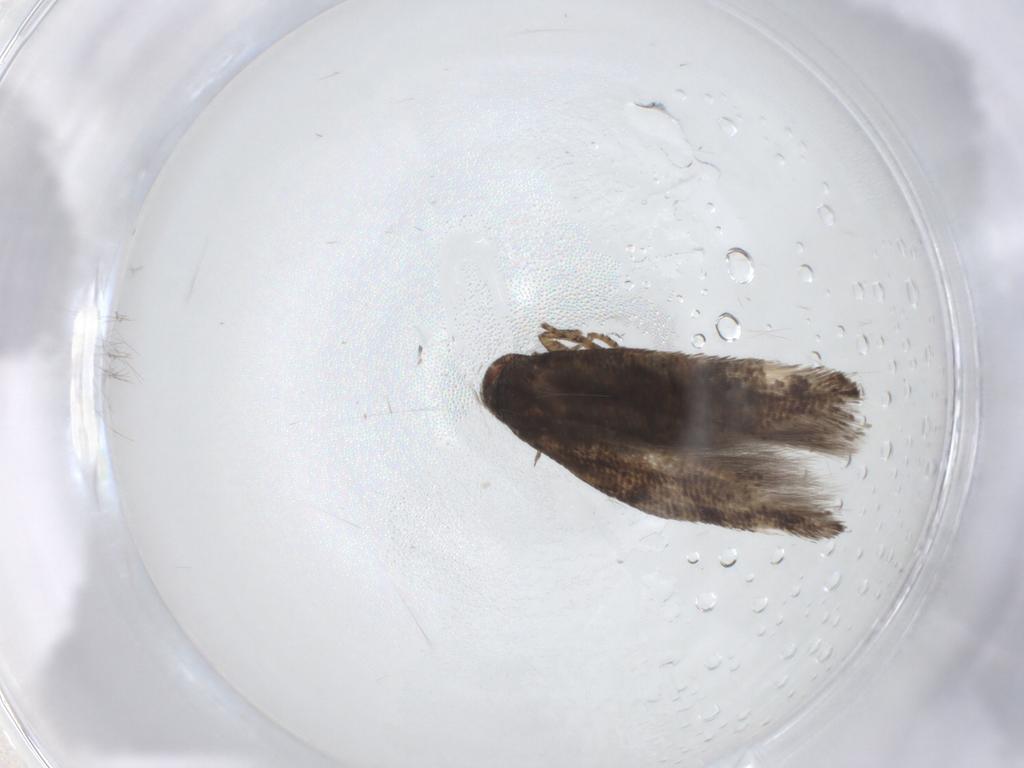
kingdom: Animalia
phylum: Arthropoda
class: Insecta
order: Lepidoptera
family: Momphidae
